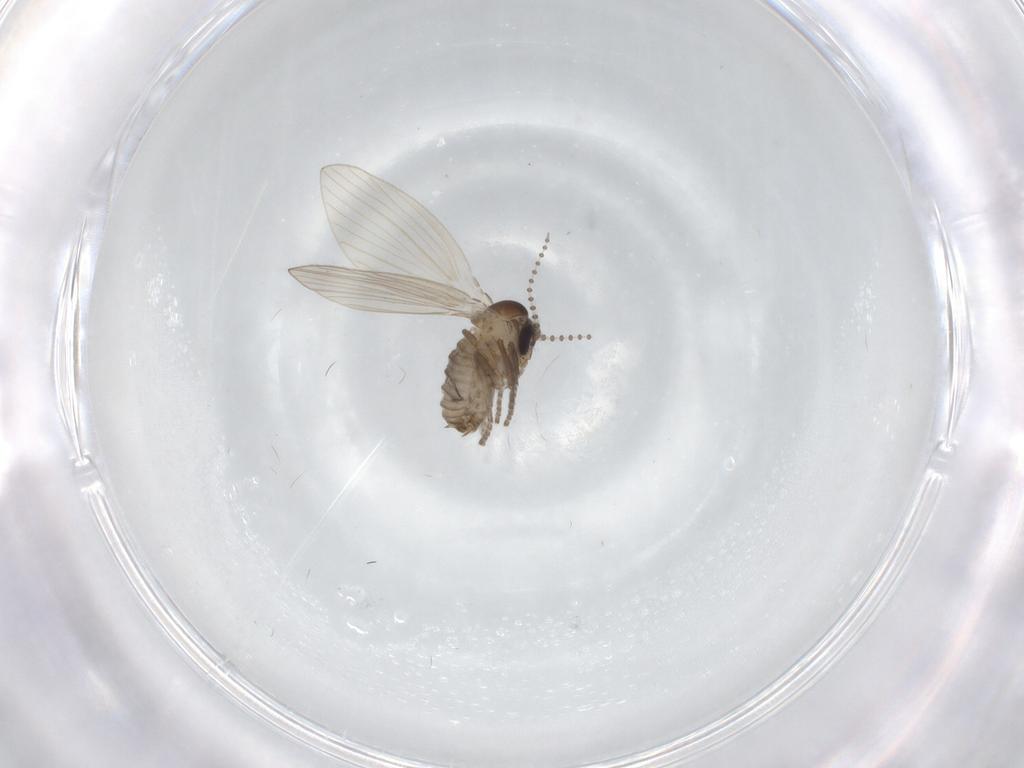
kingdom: Animalia
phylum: Arthropoda
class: Insecta
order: Diptera
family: Psychodidae
